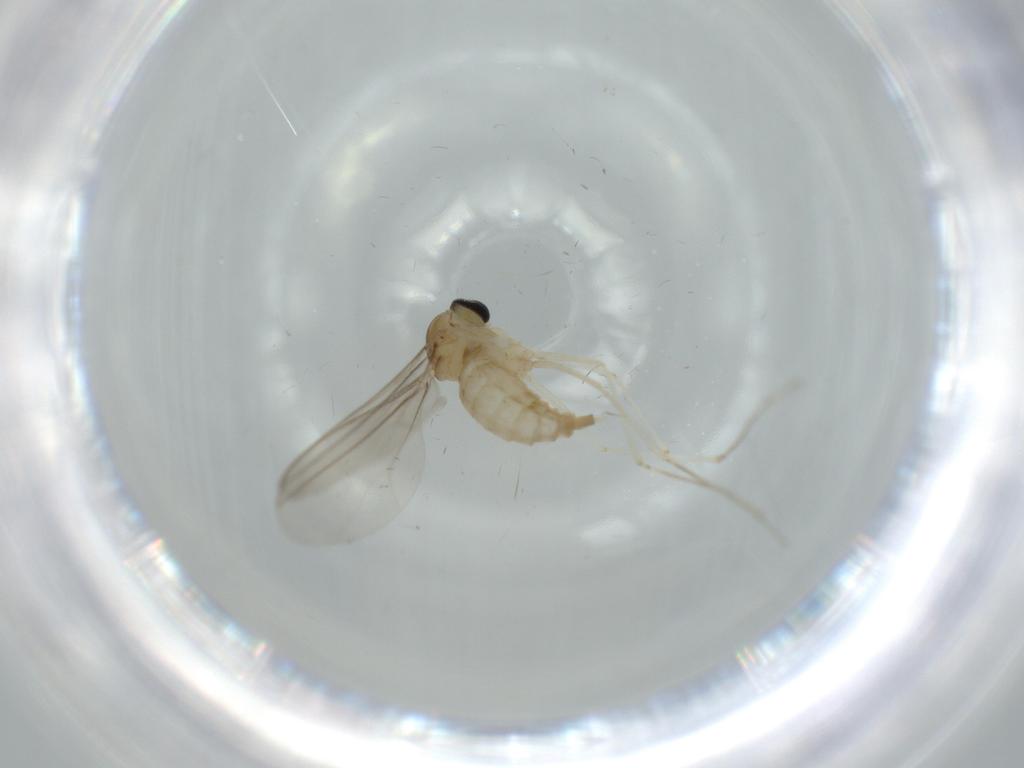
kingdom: Animalia
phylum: Arthropoda
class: Insecta
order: Diptera
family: Cecidomyiidae
